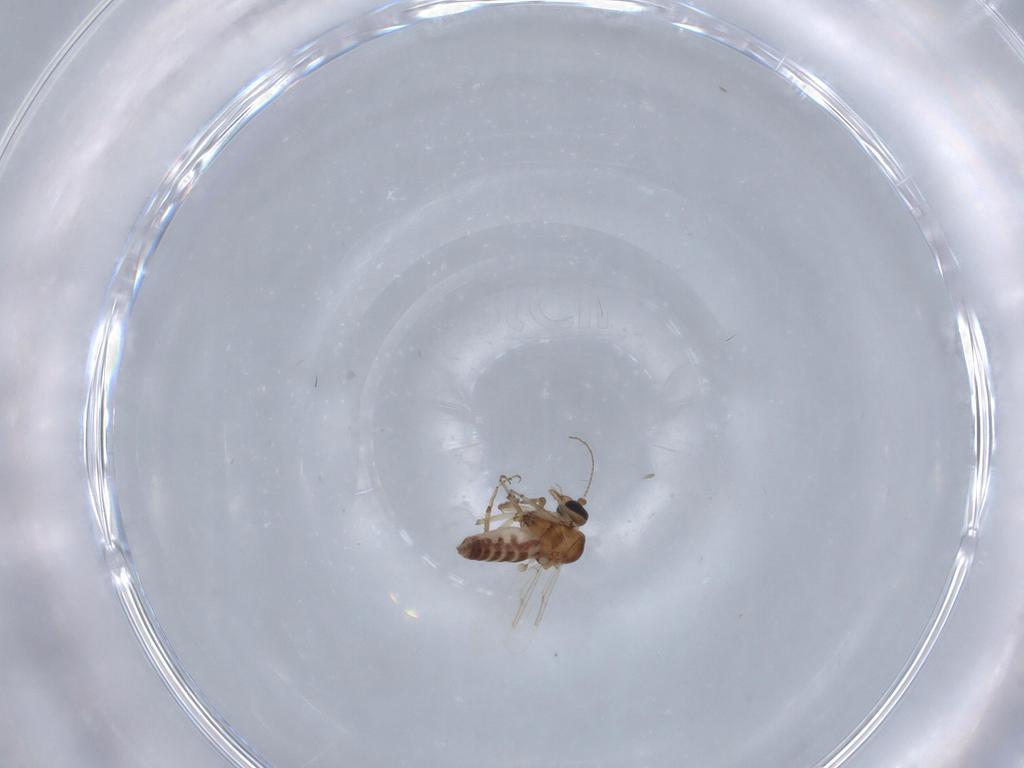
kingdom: Animalia
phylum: Arthropoda
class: Insecta
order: Diptera
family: Ceratopogonidae
